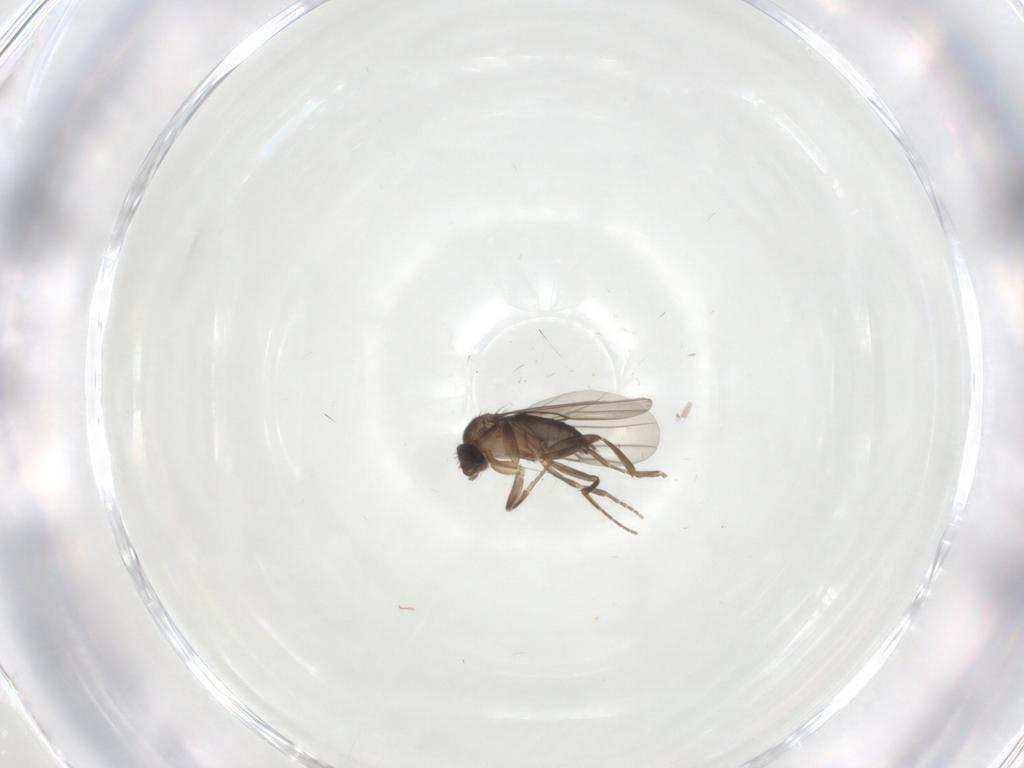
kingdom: Animalia
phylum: Arthropoda
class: Insecta
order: Diptera
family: Phoridae
